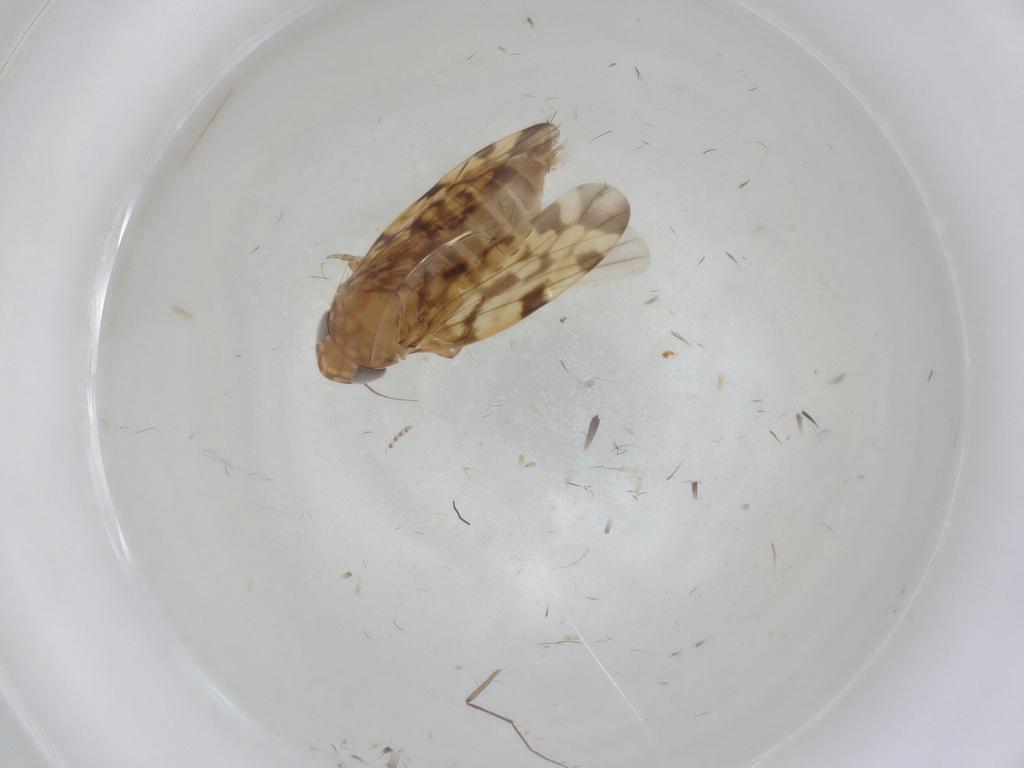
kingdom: Animalia
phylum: Arthropoda
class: Insecta
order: Hemiptera
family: Cicadellidae
